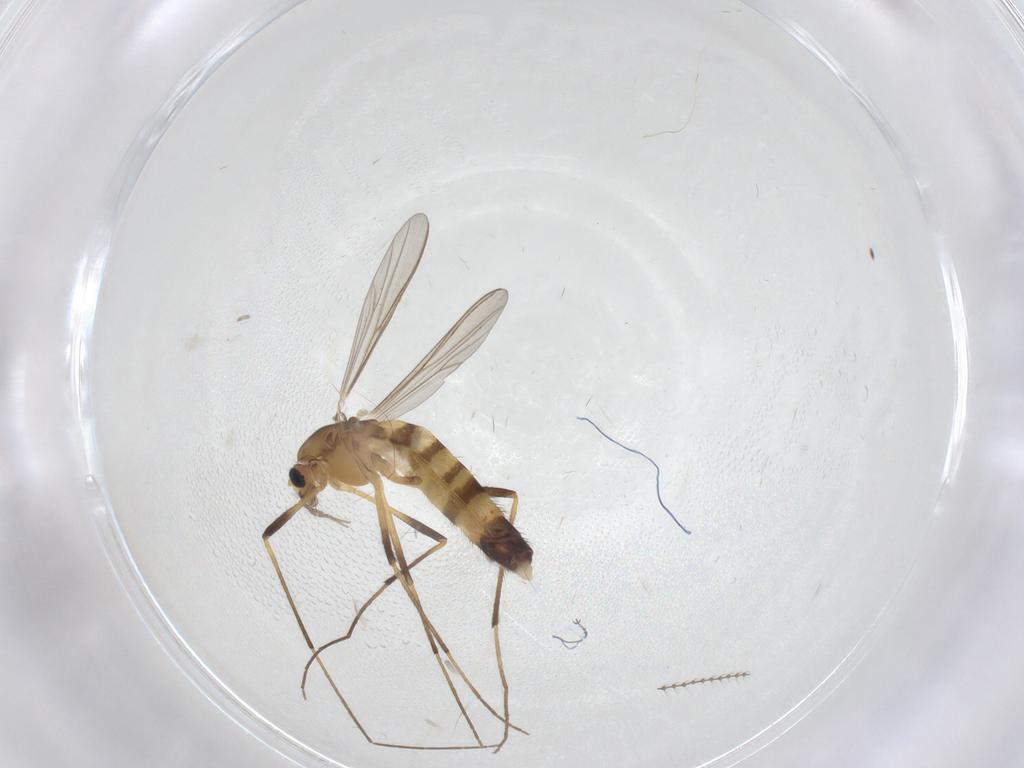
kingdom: Animalia
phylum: Arthropoda
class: Insecta
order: Diptera
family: Chironomidae
